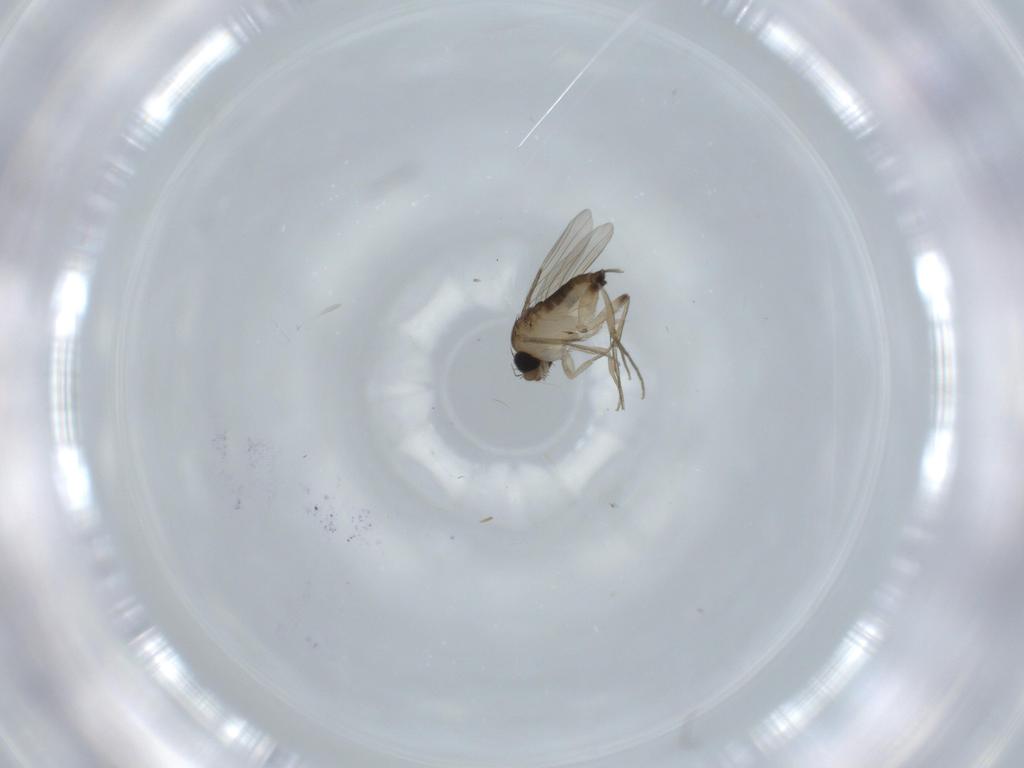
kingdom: Animalia
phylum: Arthropoda
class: Insecta
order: Diptera
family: Phoridae
